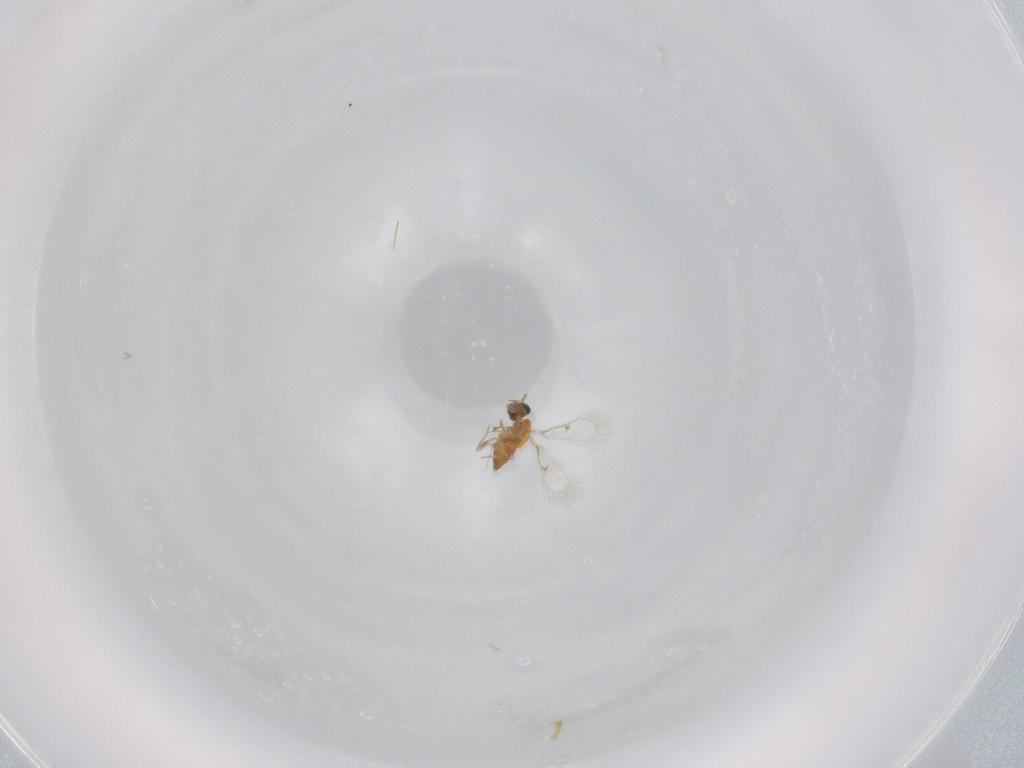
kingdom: Animalia
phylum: Arthropoda
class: Insecta
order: Hymenoptera
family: Trichogrammatidae
